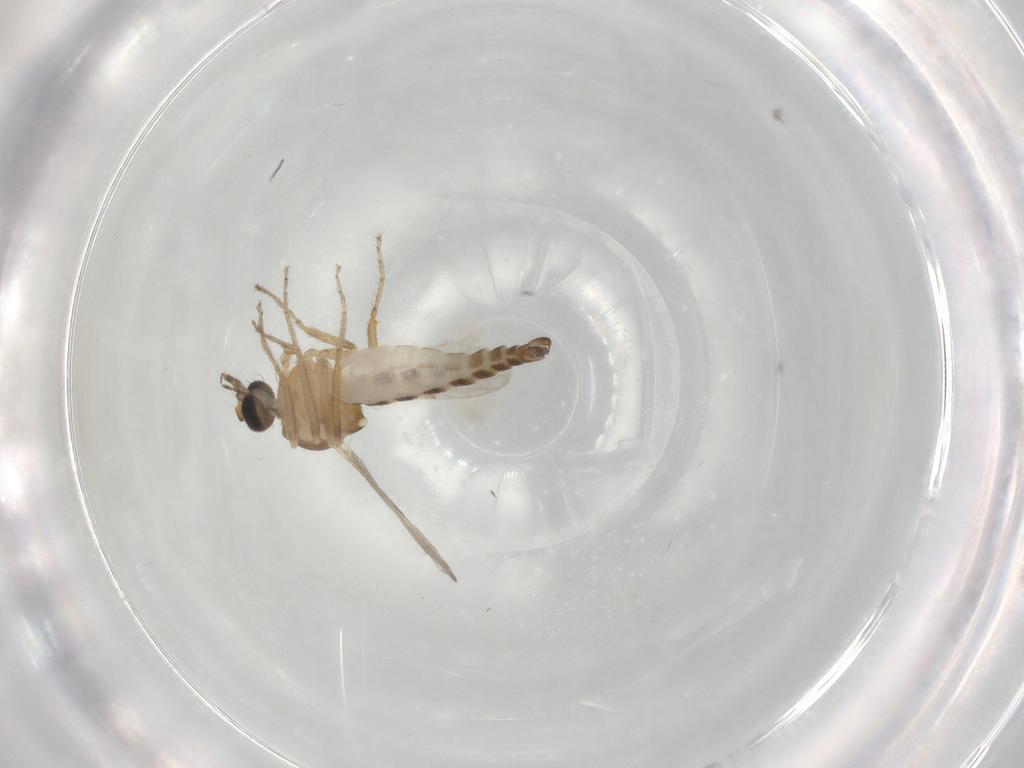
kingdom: Animalia
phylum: Arthropoda
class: Insecta
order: Diptera
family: Ceratopogonidae
